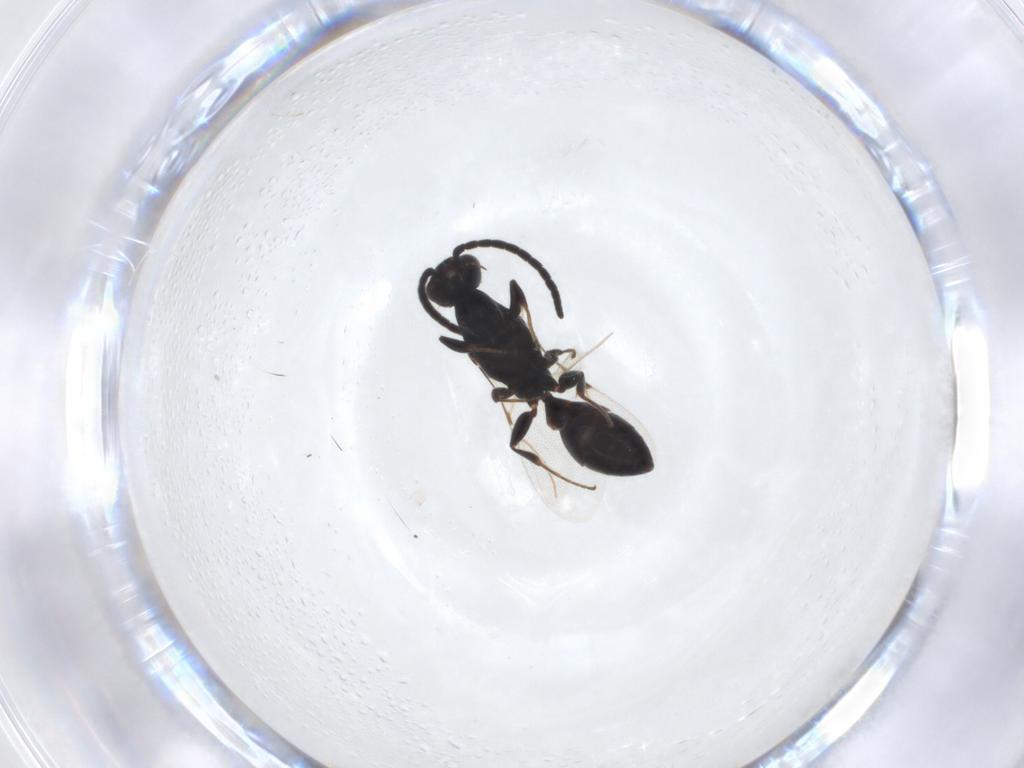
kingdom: Animalia
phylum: Arthropoda
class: Insecta
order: Hymenoptera
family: Bethylidae
